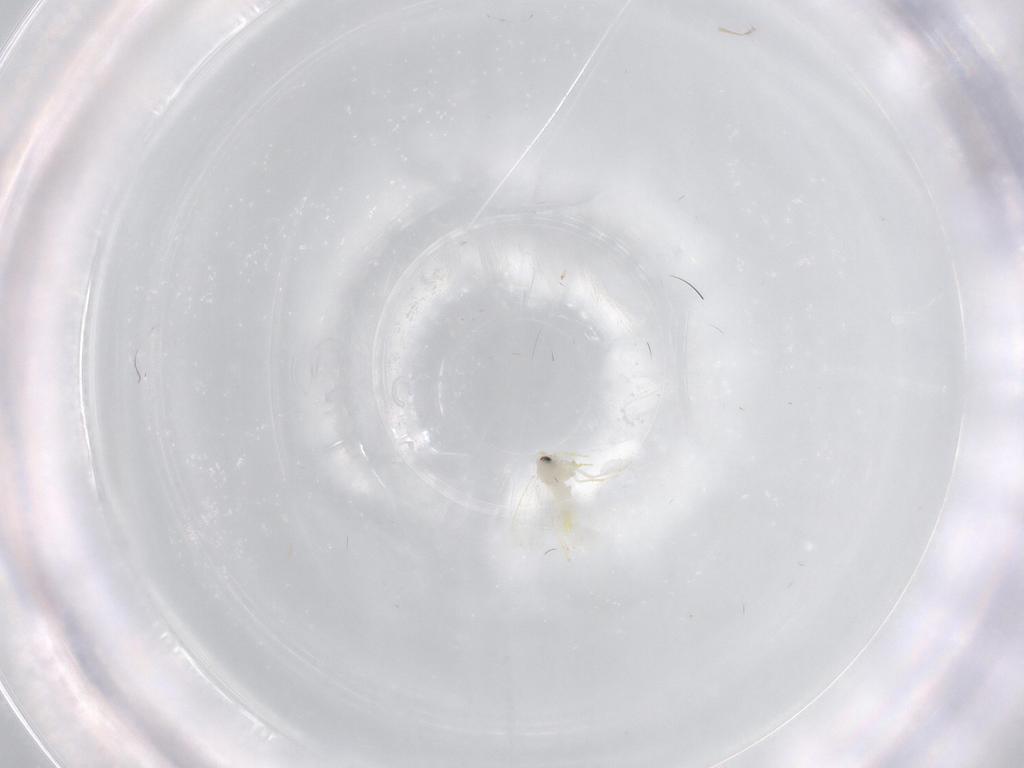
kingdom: Animalia
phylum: Arthropoda
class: Insecta
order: Hemiptera
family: Aleyrodidae
